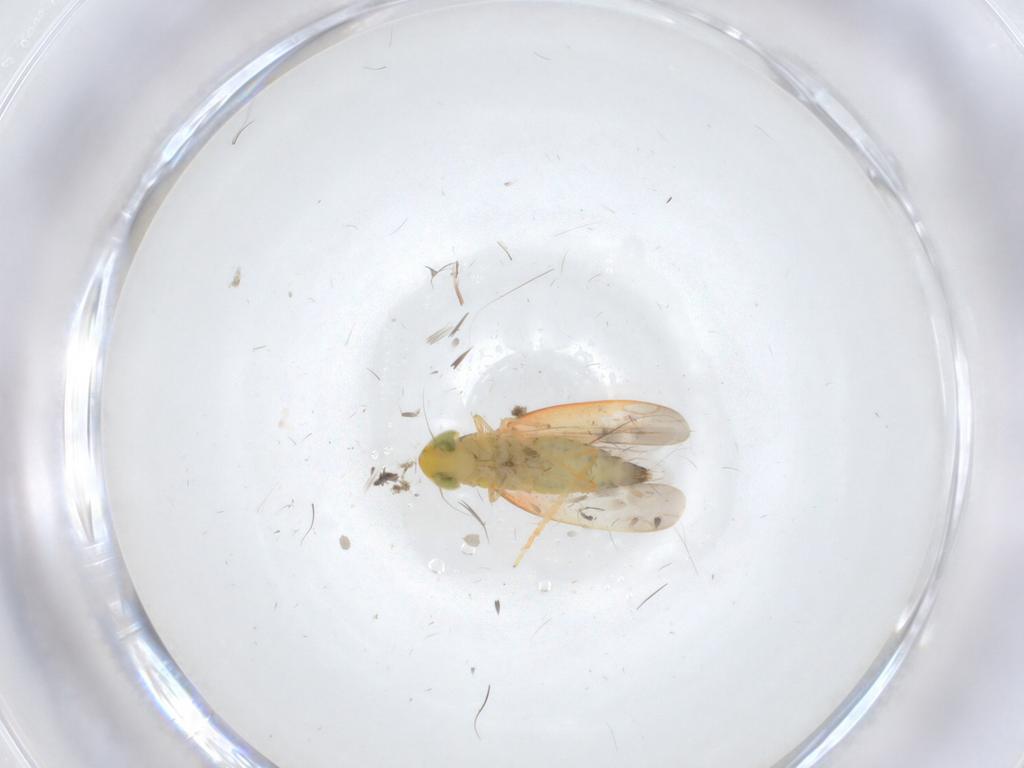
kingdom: Animalia
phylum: Arthropoda
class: Insecta
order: Hemiptera
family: Cicadellidae
